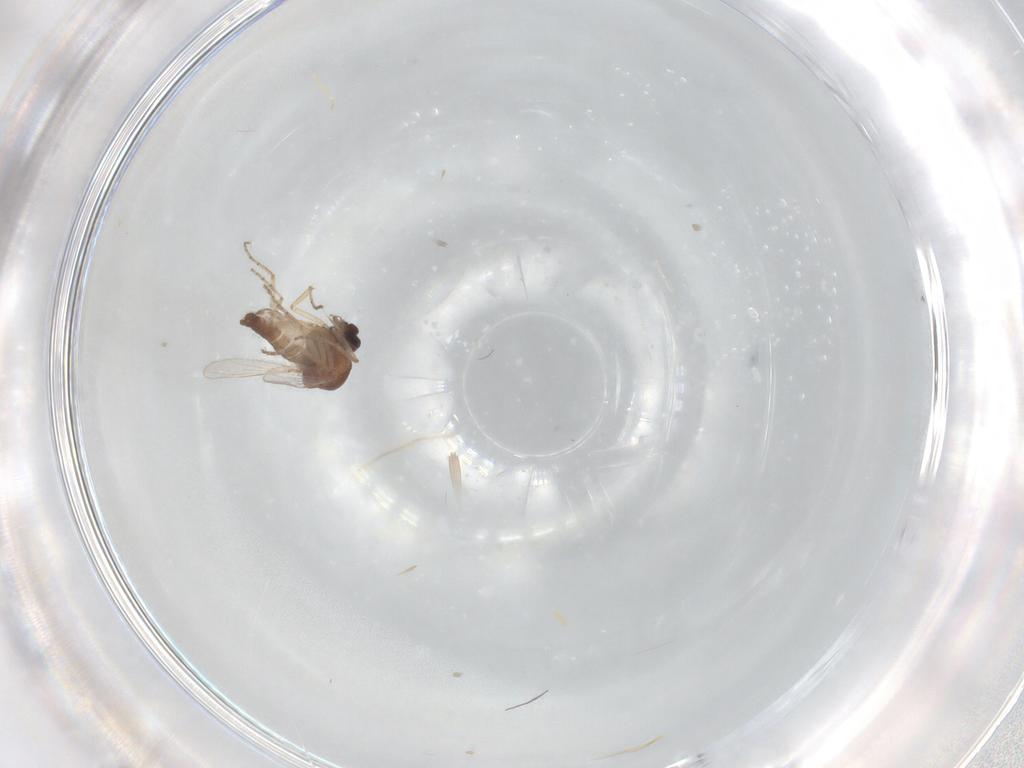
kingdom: Animalia
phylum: Arthropoda
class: Insecta
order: Diptera
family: Ceratopogonidae
